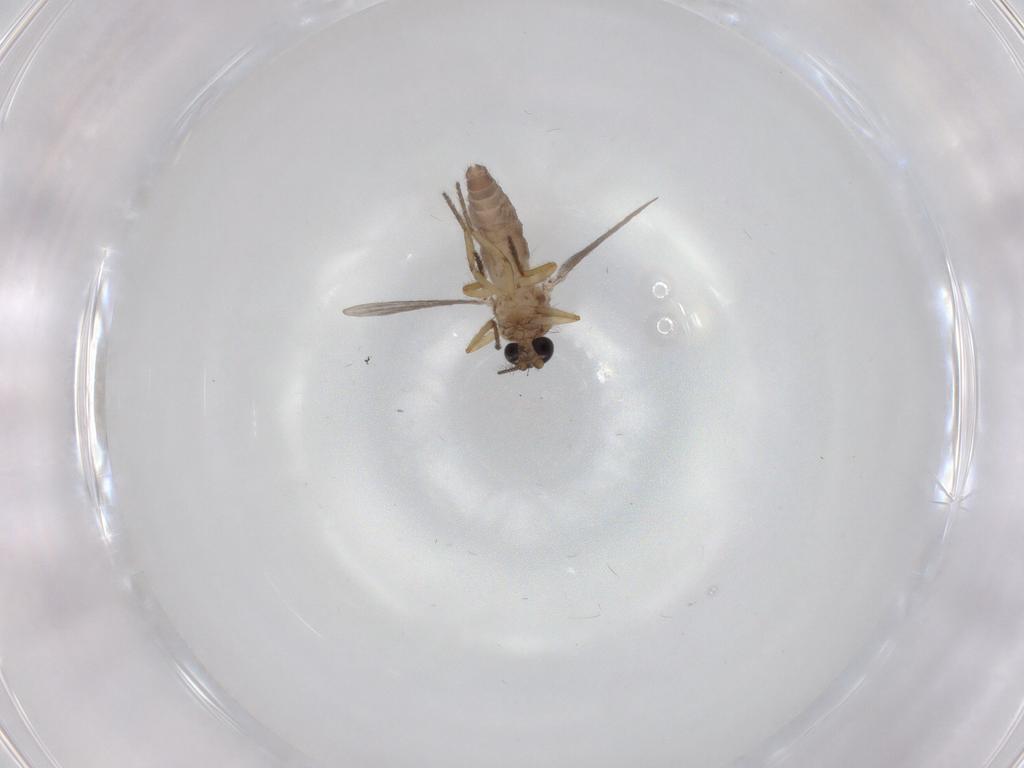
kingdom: Animalia
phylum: Arthropoda
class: Insecta
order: Diptera
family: Ceratopogonidae
